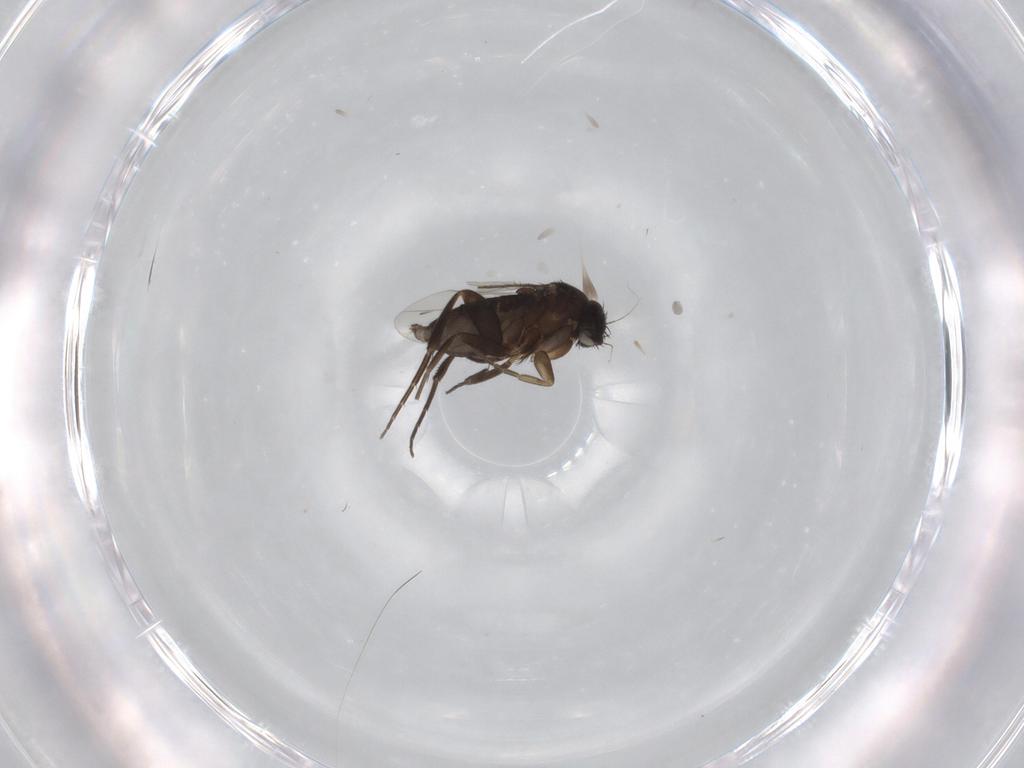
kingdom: Animalia
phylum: Arthropoda
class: Insecta
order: Diptera
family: Phoridae
